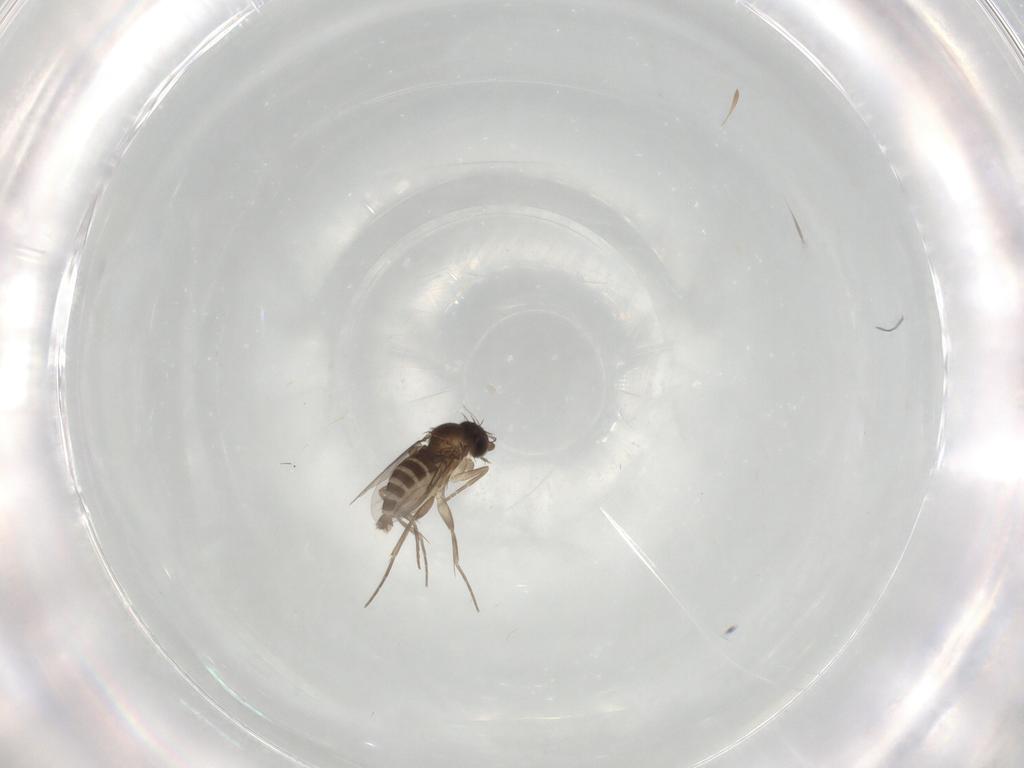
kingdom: Animalia
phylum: Arthropoda
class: Insecta
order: Diptera
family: Phoridae
